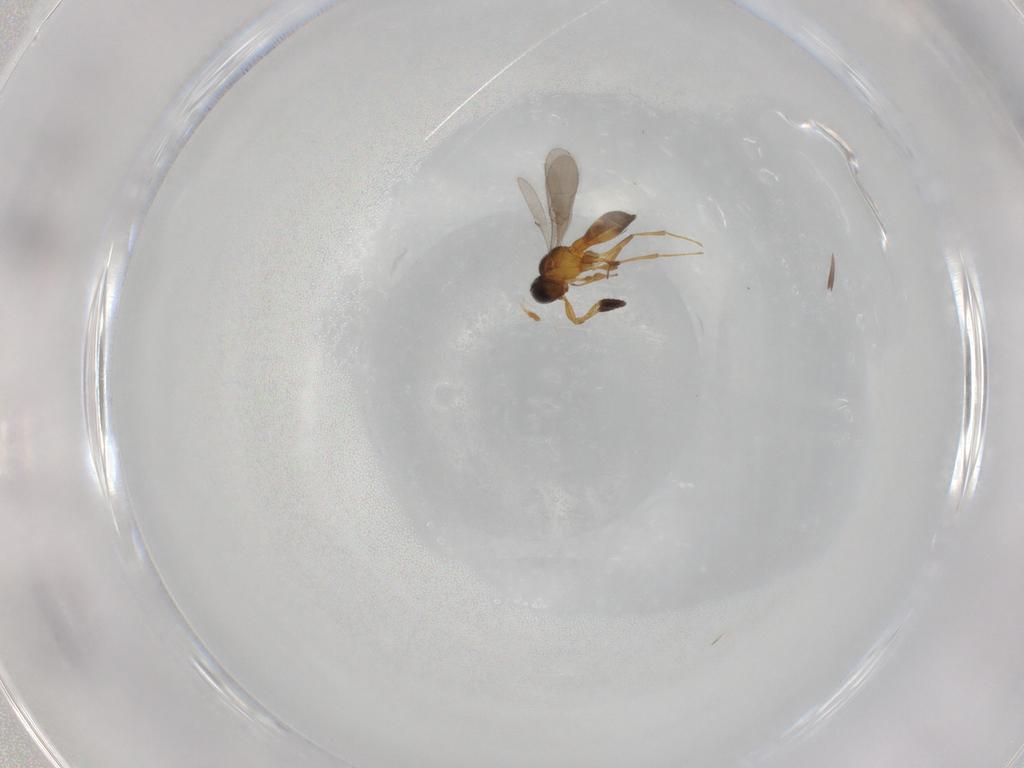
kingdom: Animalia
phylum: Arthropoda
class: Insecta
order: Hymenoptera
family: Scelionidae
